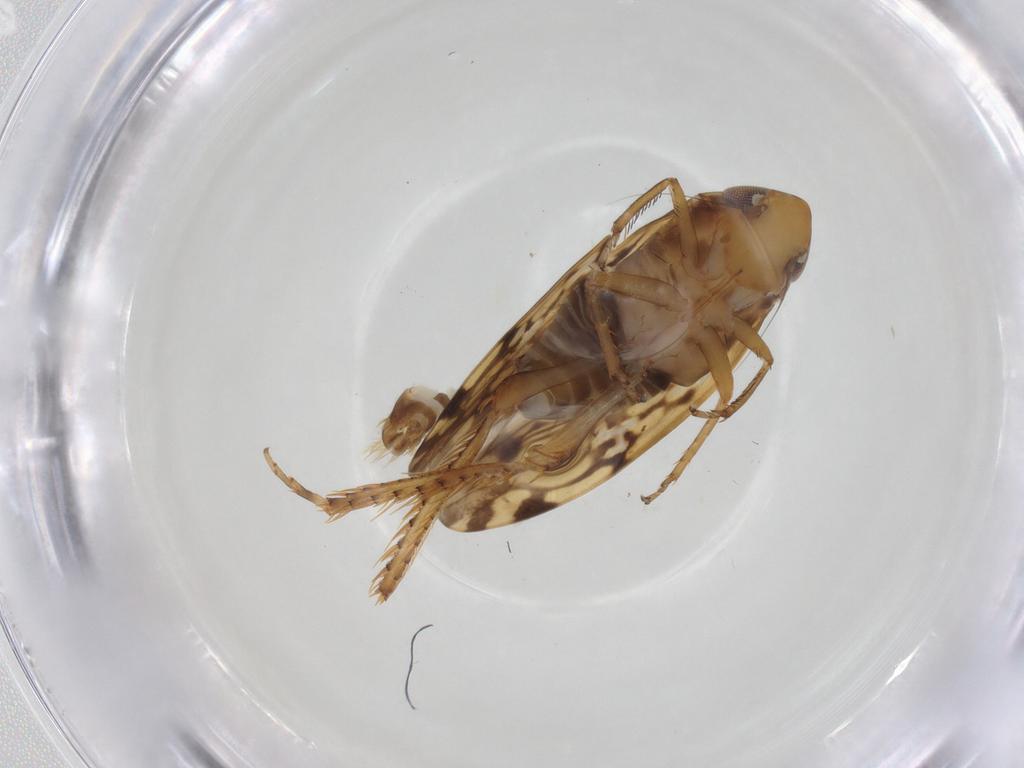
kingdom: Animalia
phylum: Arthropoda
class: Insecta
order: Hemiptera
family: Cicadellidae
